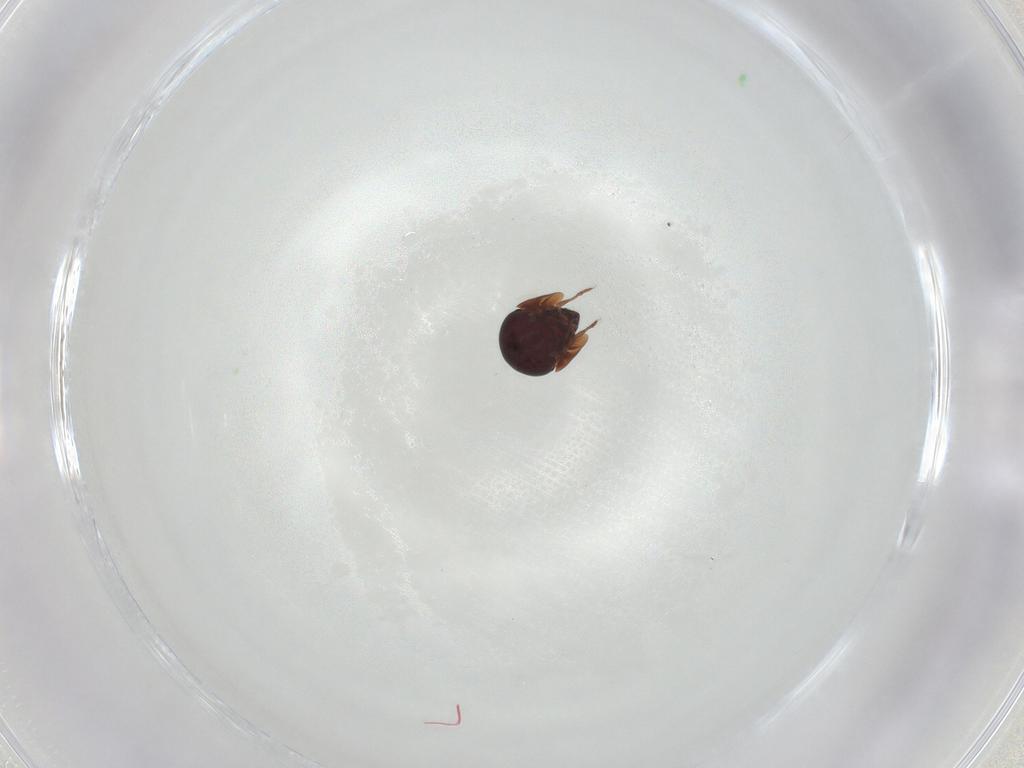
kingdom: Animalia
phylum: Arthropoda
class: Arachnida
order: Sarcoptiformes
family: Galumnidae
